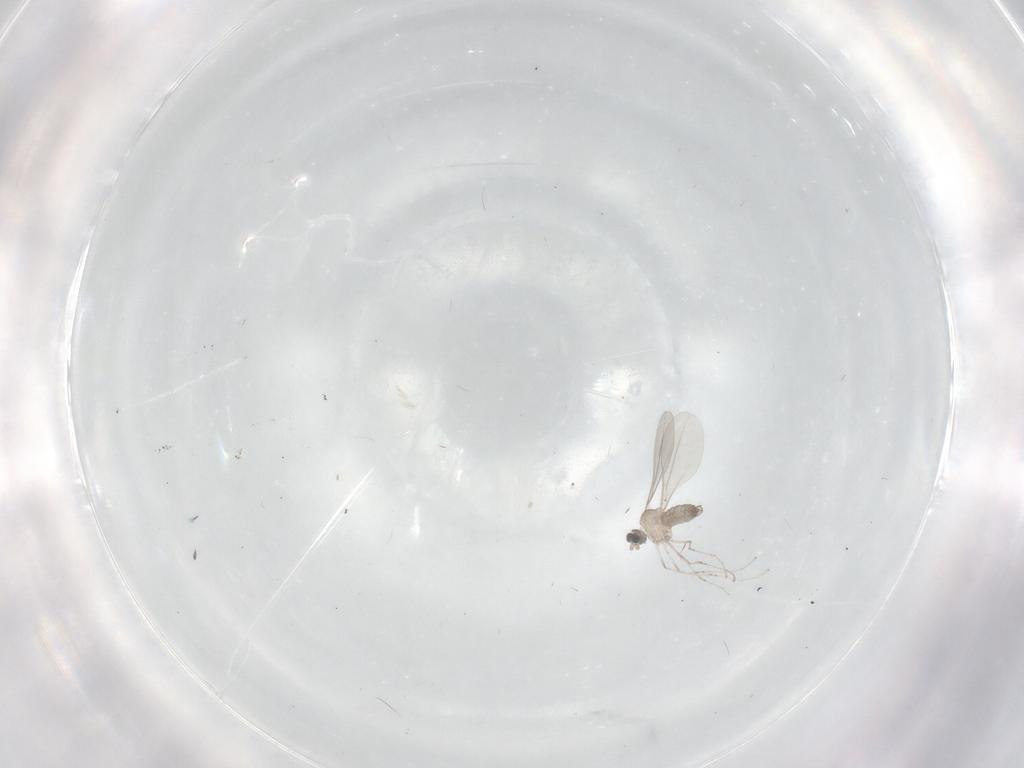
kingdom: Animalia
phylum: Arthropoda
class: Insecta
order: Diptera
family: Cecidomyiidae
